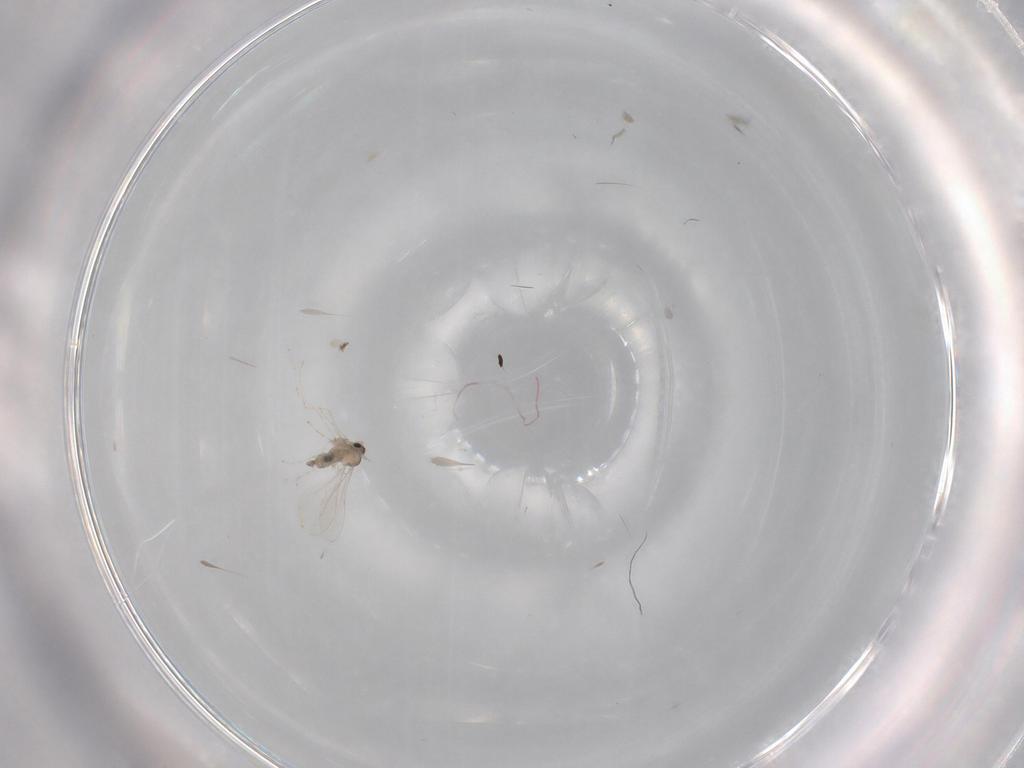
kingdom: Animalia
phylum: Arthropoda
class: Insecta
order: Diptera
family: Cecidomyiidae
